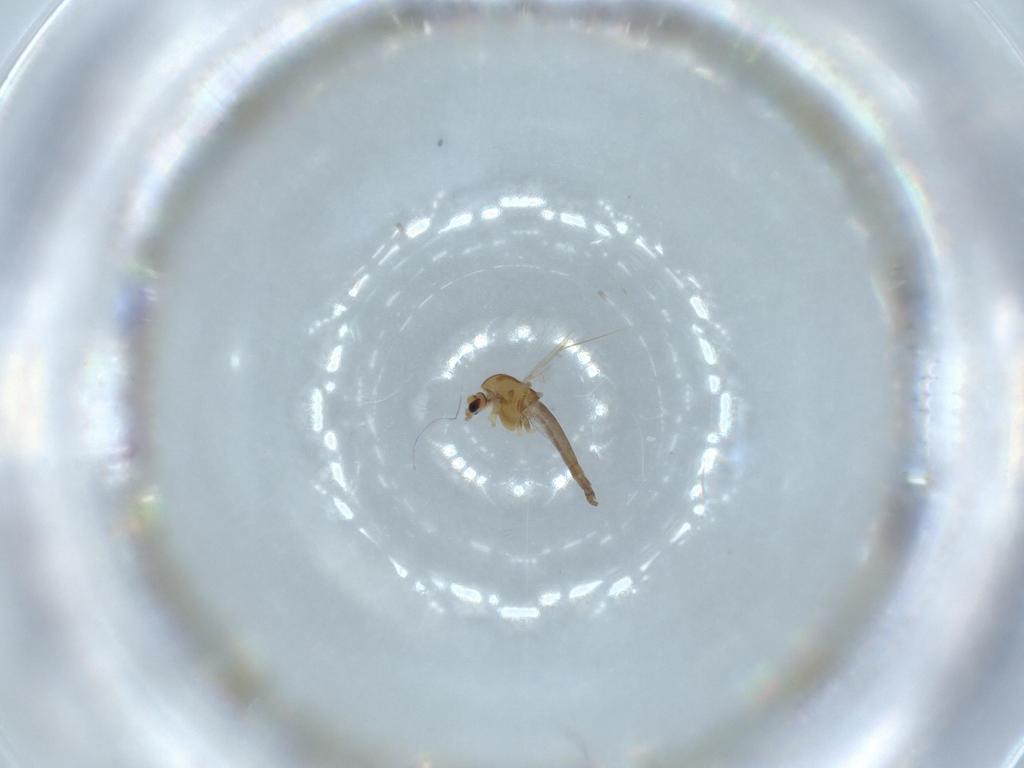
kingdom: Animalia
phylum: Arthropoda
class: Insecta
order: Diptera
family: Chironomidae
